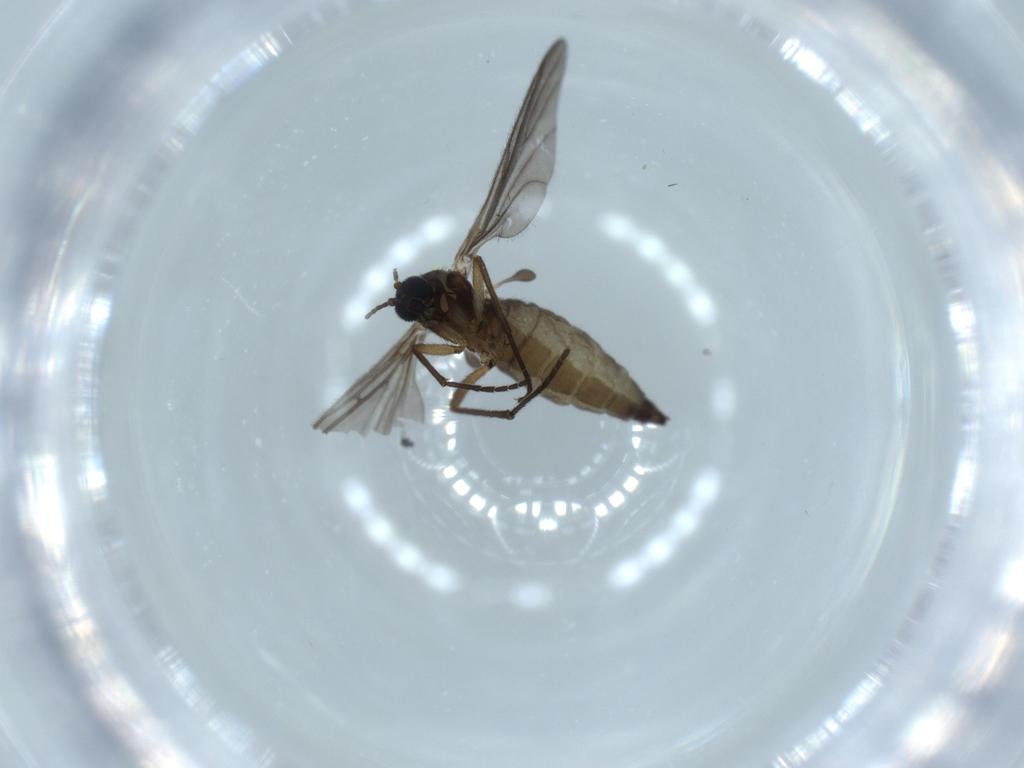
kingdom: Animalia
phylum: Arthropoda
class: Insecta
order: Diptera
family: Sciaridae
